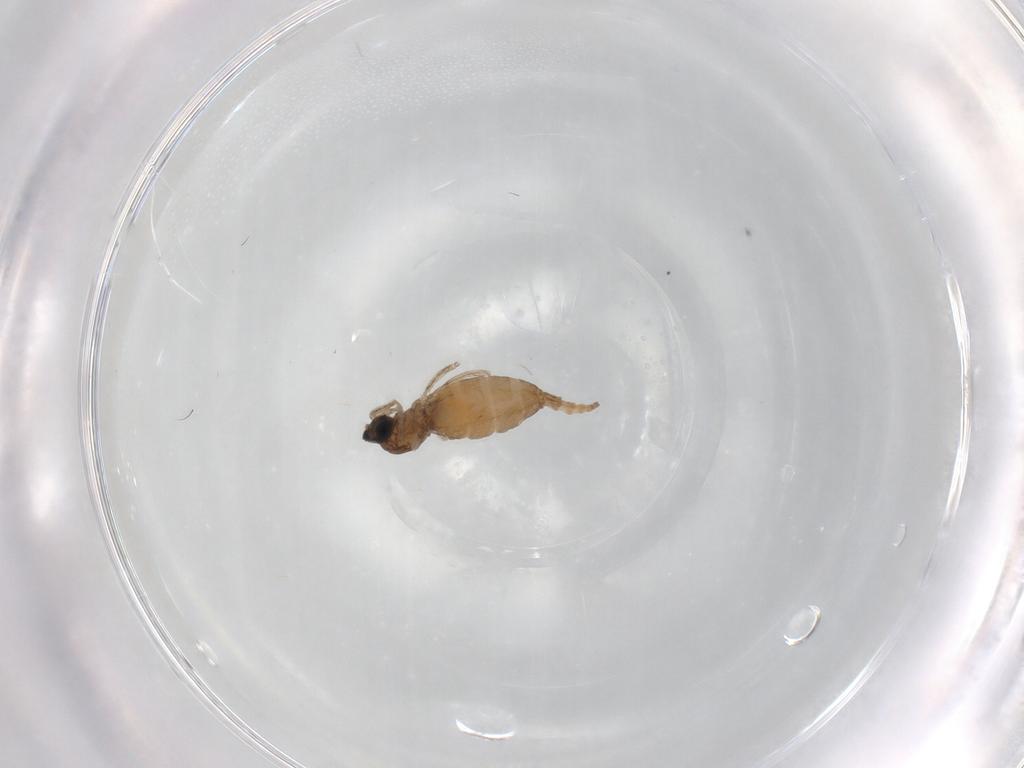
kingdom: Animalia
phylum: Arthropoda
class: Insecta
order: Diptera
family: Cecidomyiidae
